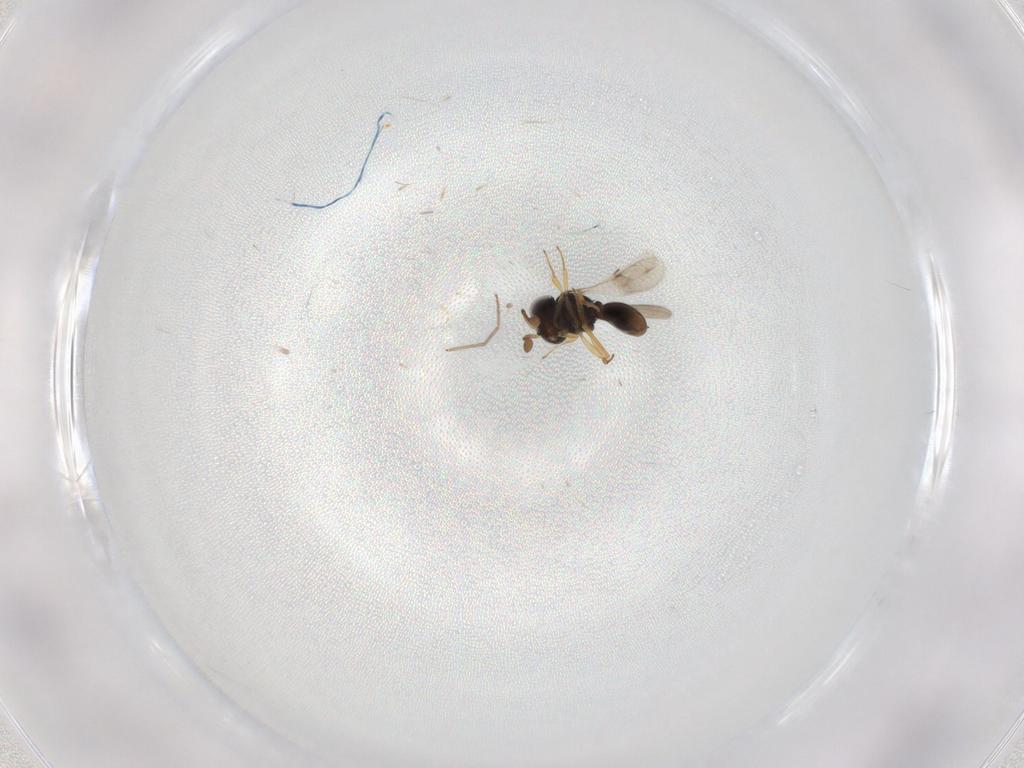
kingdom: Animalia
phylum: Arthropoda
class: Insecta
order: Hymenoptera
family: Scelionidae
